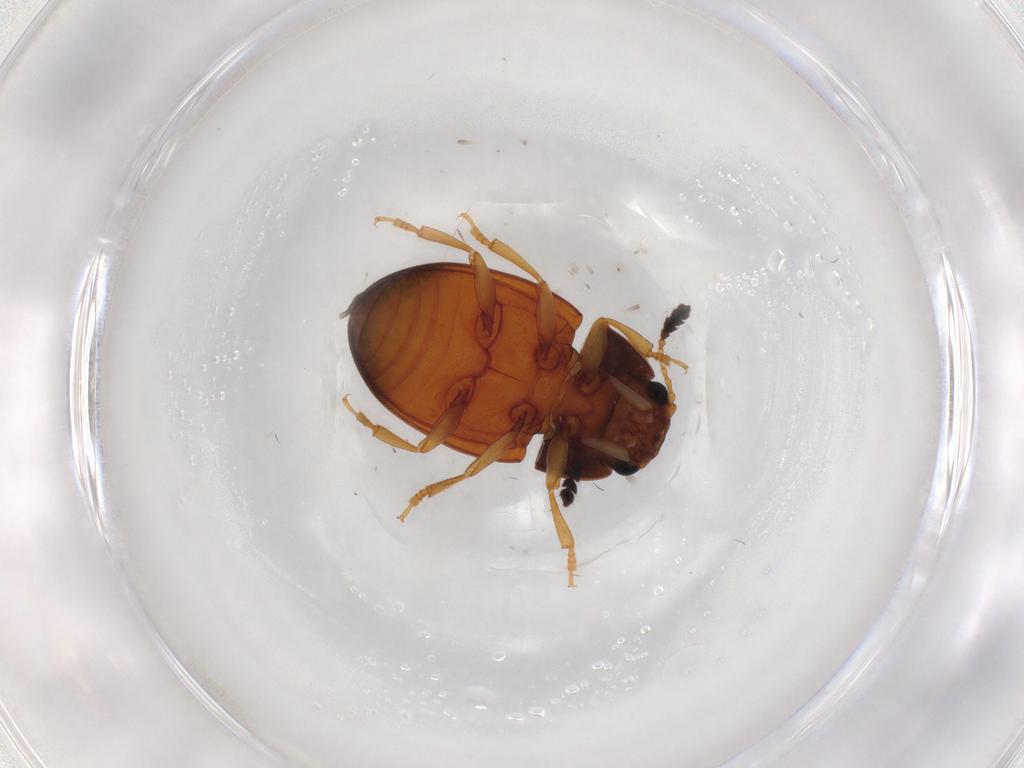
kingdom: Animalia
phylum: Arthropoda
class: Insecta
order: Coleoptera
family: Erotylidae
